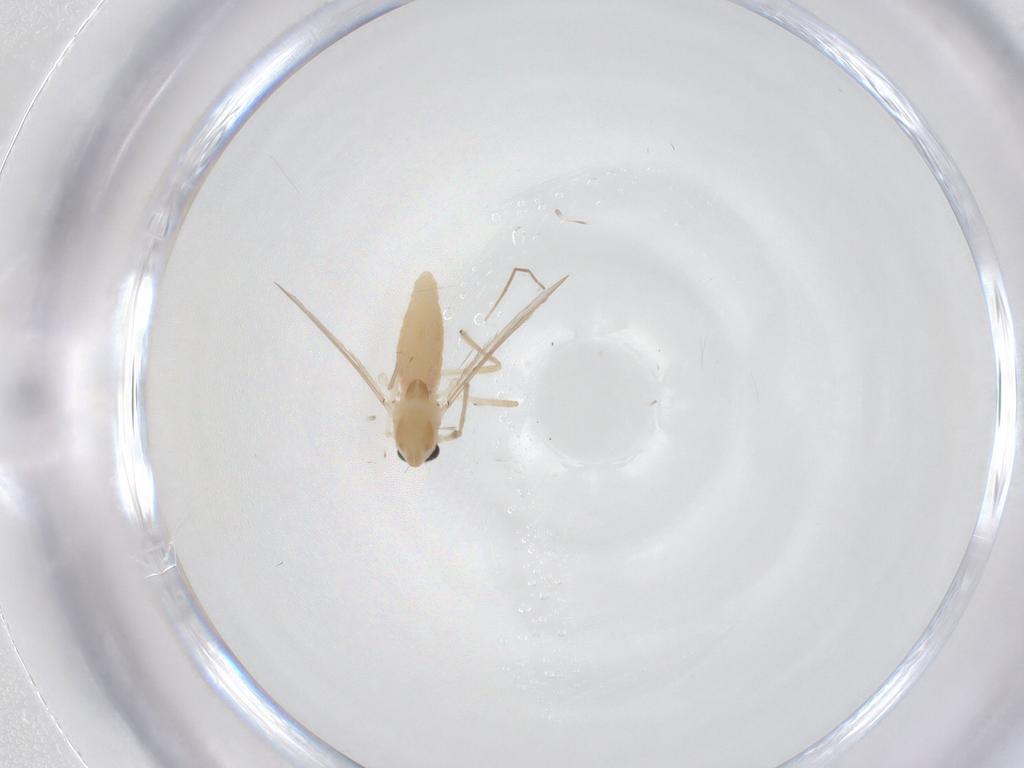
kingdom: Animalia
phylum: Arthropoda
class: Insecta
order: Diptera
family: Chironomidae
